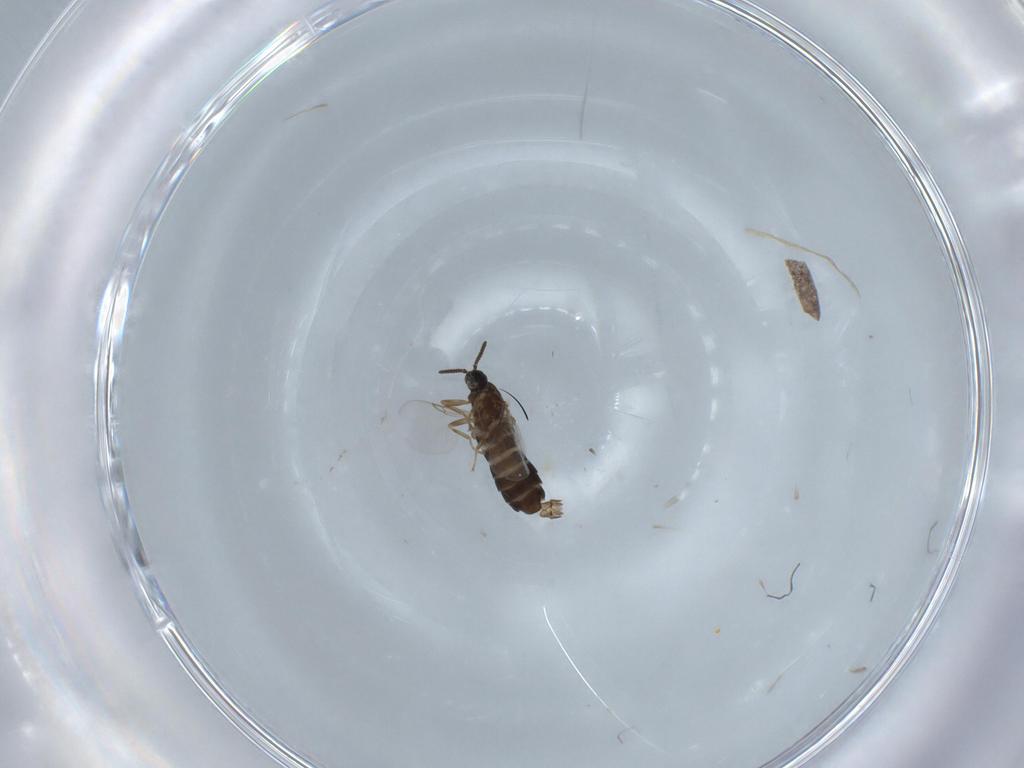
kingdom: Animalia
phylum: Arthropoda
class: Insecta
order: Diptera
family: Scatopsidae
